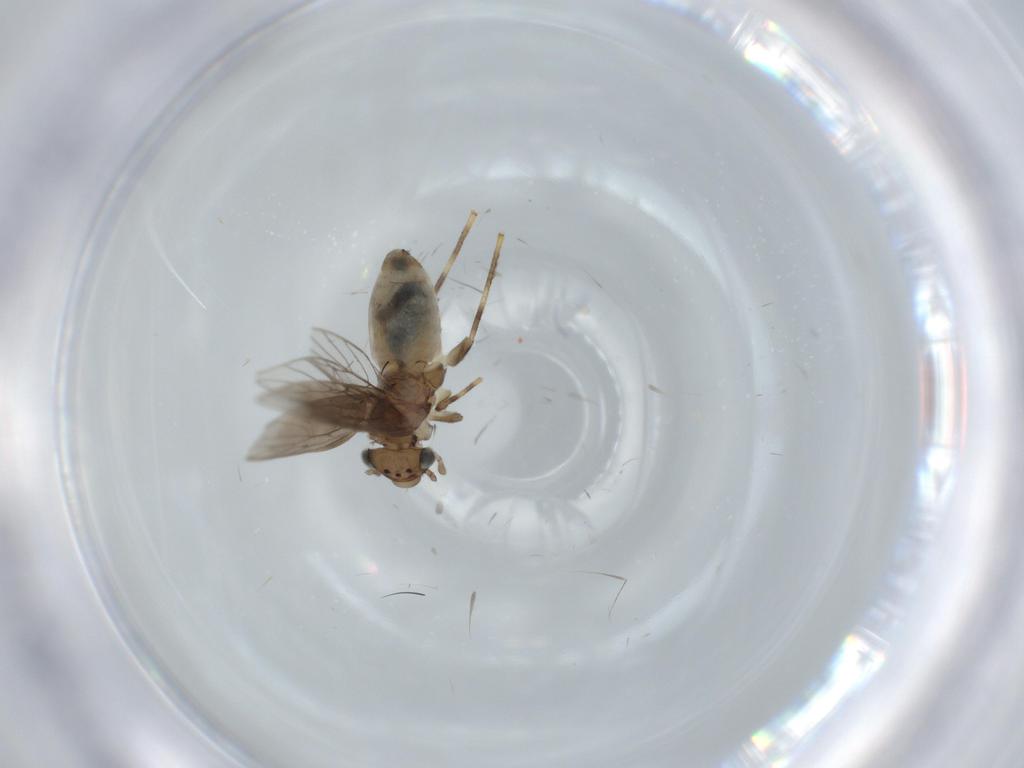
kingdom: Animalia
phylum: Arthropoda
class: Insecta
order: Psocodea
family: Lepidopsocidae
